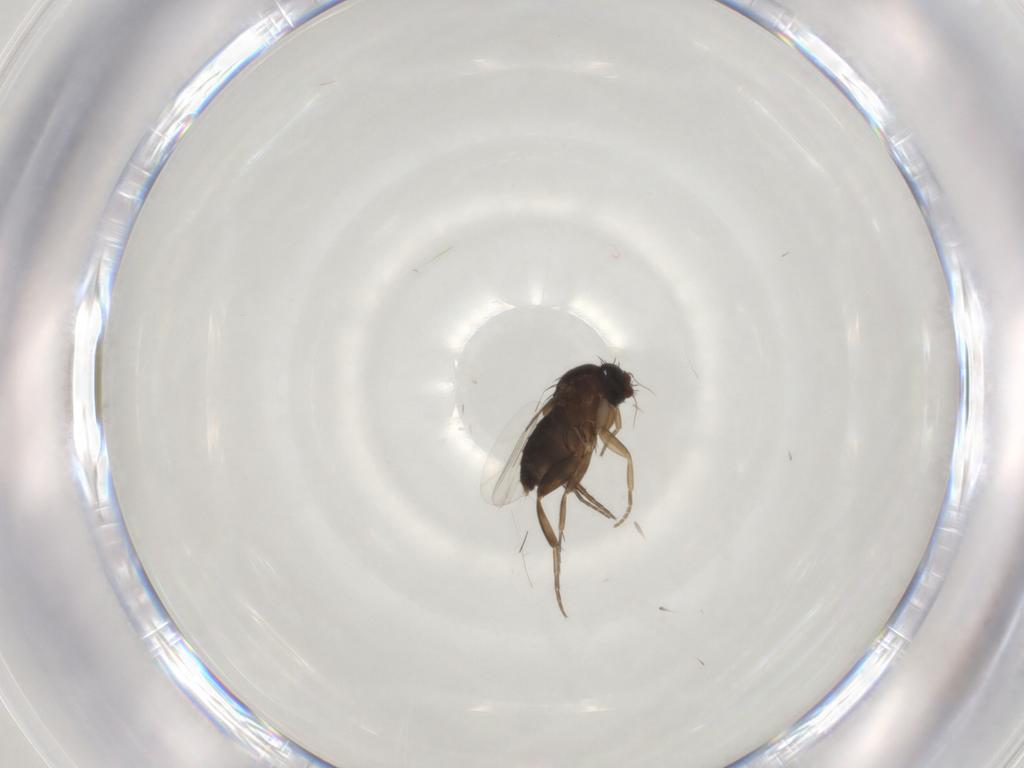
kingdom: Animalia
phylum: Arthropoda
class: Insecta
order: Diptera
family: Phoridae
